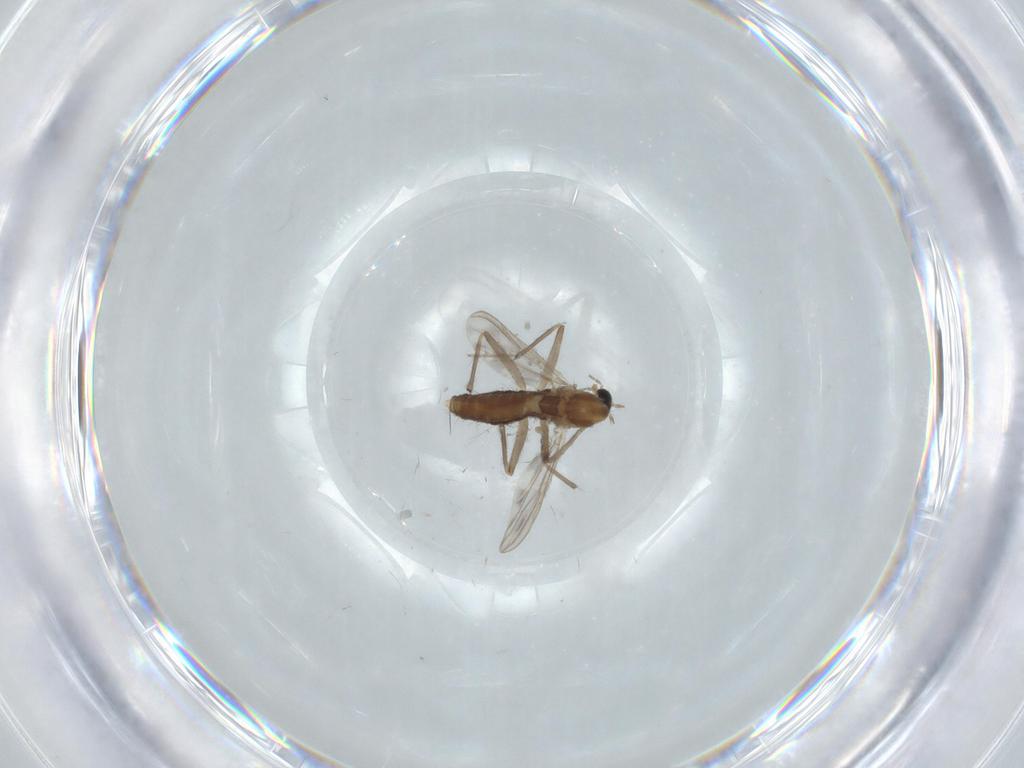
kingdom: Animalia
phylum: Arthropoda
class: Insecta
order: Diptera
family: Chironomidae
